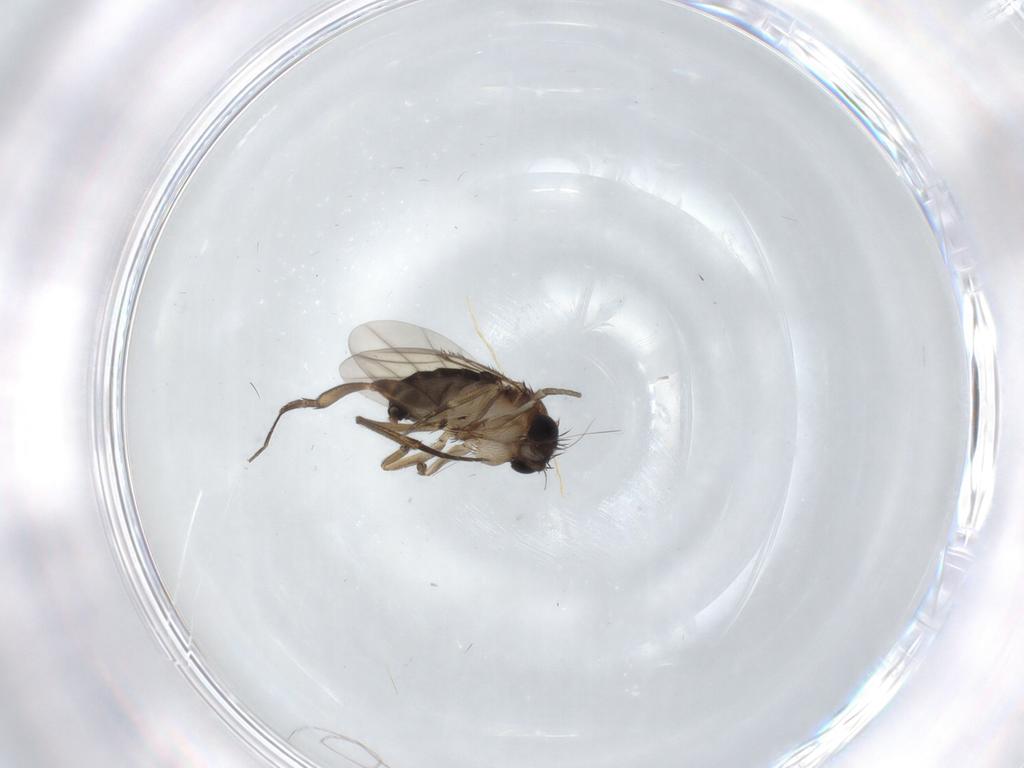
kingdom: Animalia
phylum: Arthropoda
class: Insecta
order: Diptera
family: Phoridae
